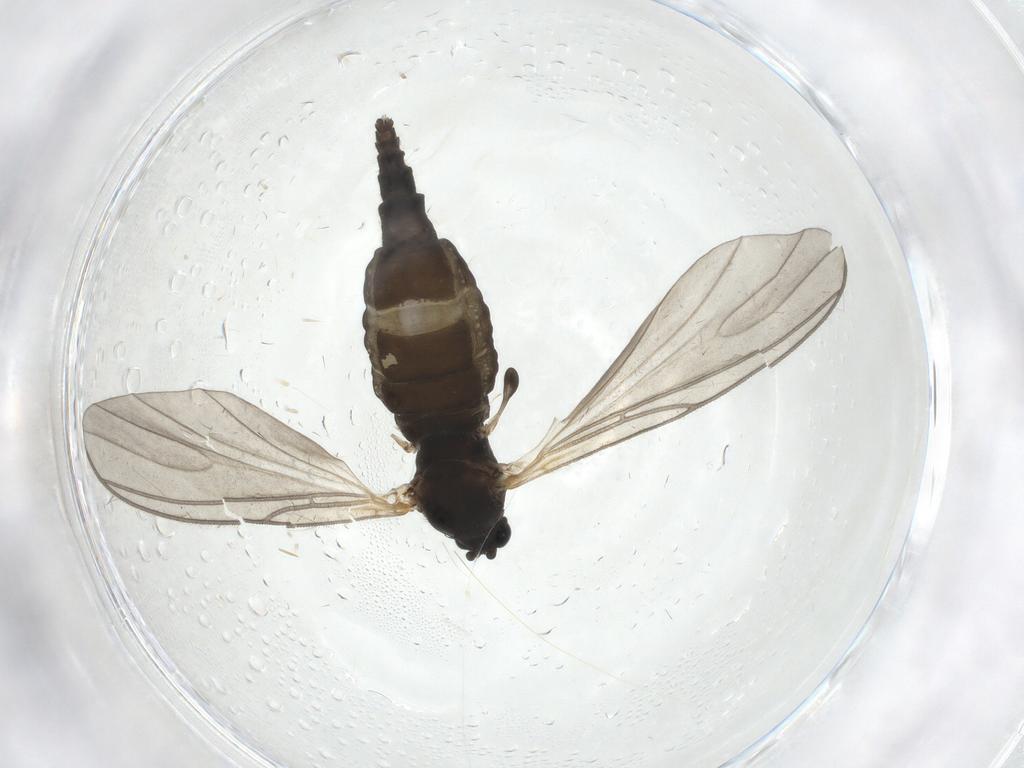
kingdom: Animalia
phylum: Arthropoda
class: Insecta
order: Diptera
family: Sciaridae
